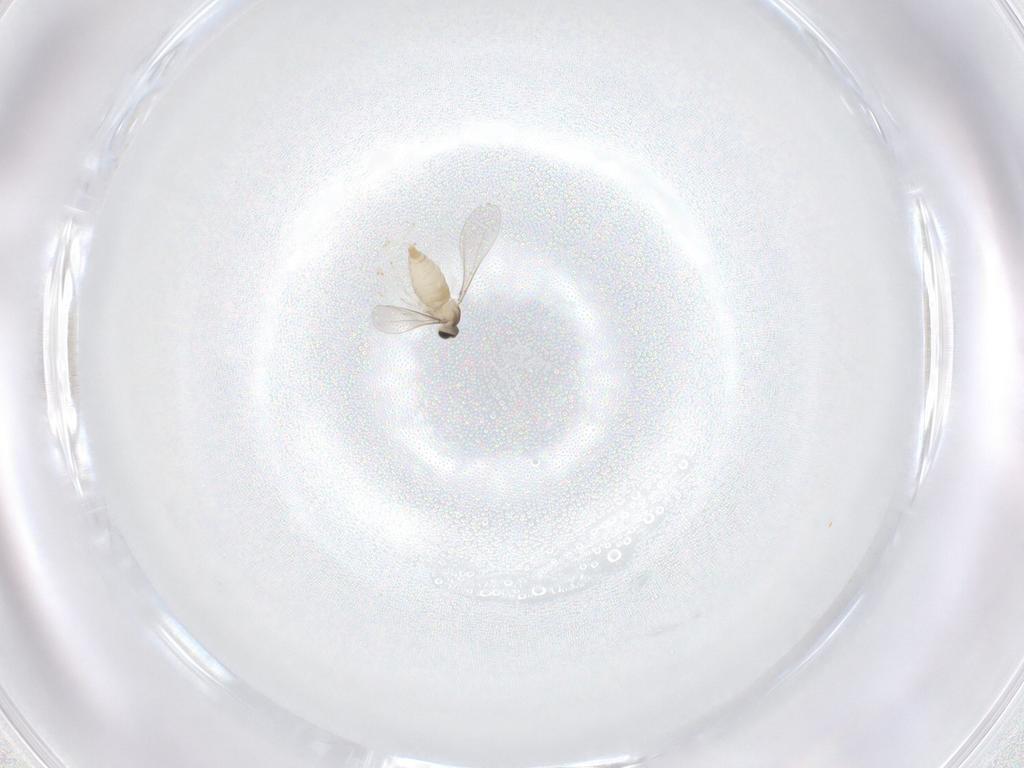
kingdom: Animalia
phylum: Arthropoda
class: Insecta
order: Diptera
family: Cecidomyiidae
